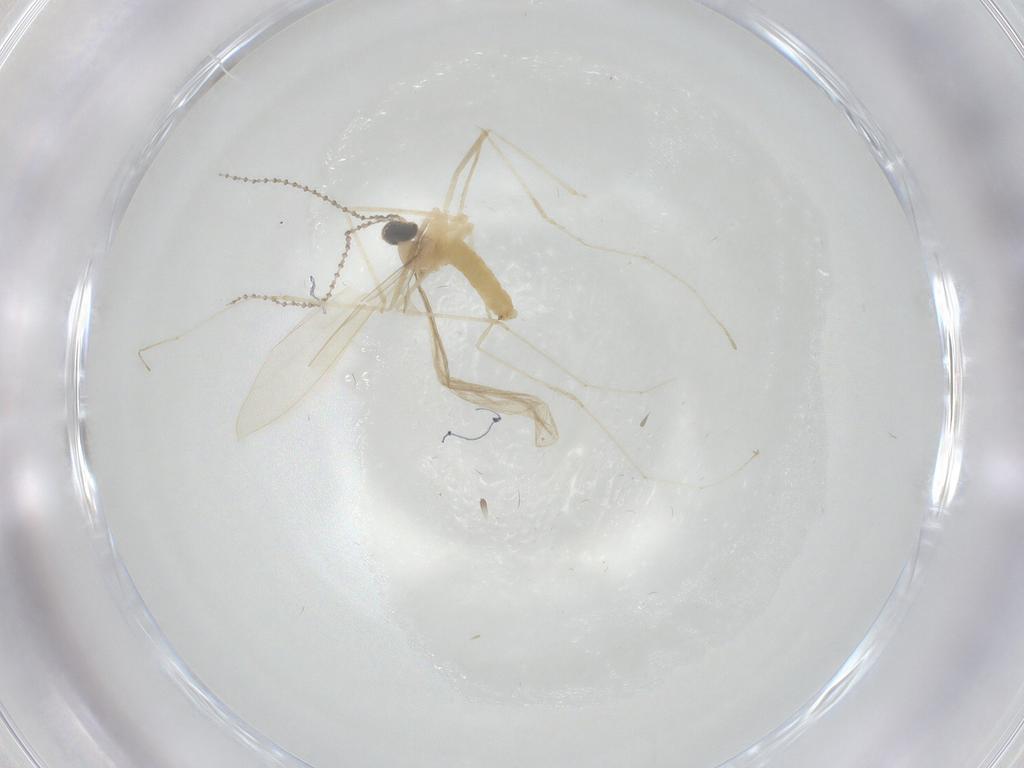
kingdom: Animalia
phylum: Arthropoda
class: Insecta
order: Diptera
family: Cecidomyiidae
